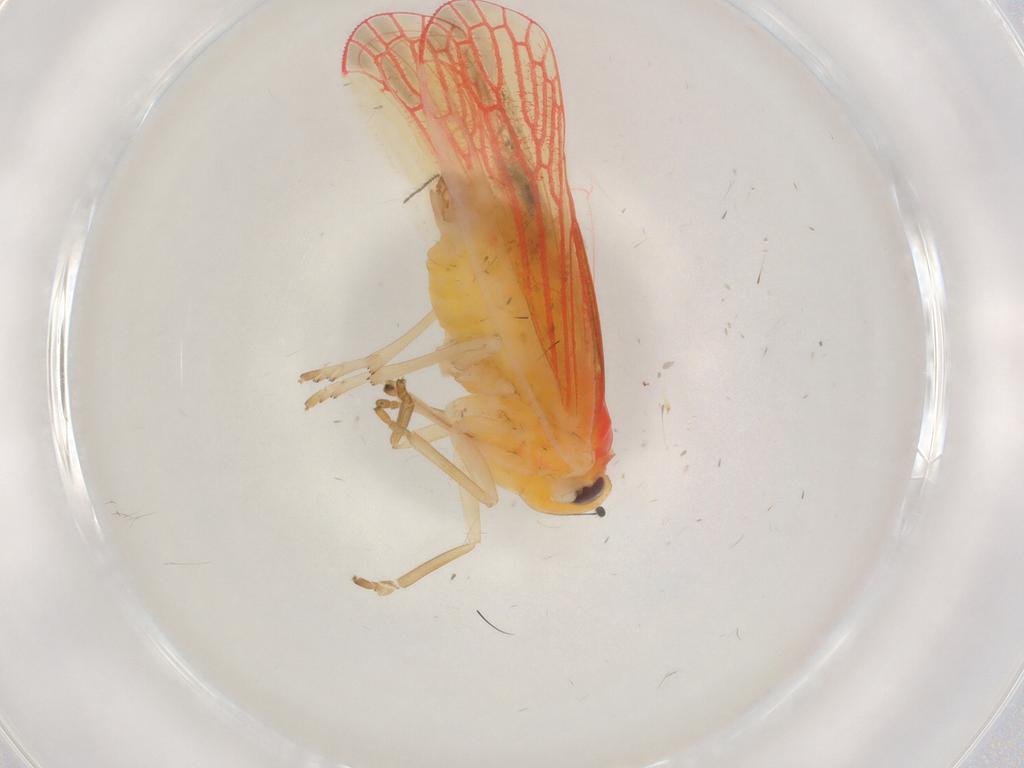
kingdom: Animalia
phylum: Arthropoda
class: Insecta
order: Hemiptera
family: Derbidae
